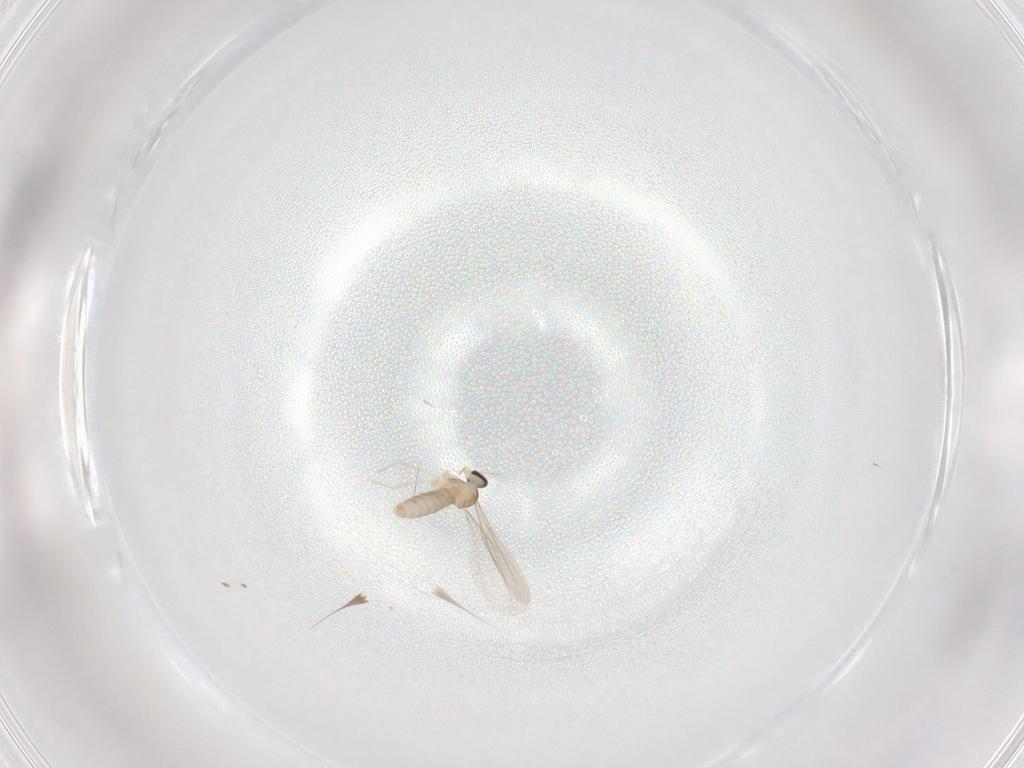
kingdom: Animalia
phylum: Arthropoda
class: Insecta
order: Diptera
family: Cecidomyiidae
